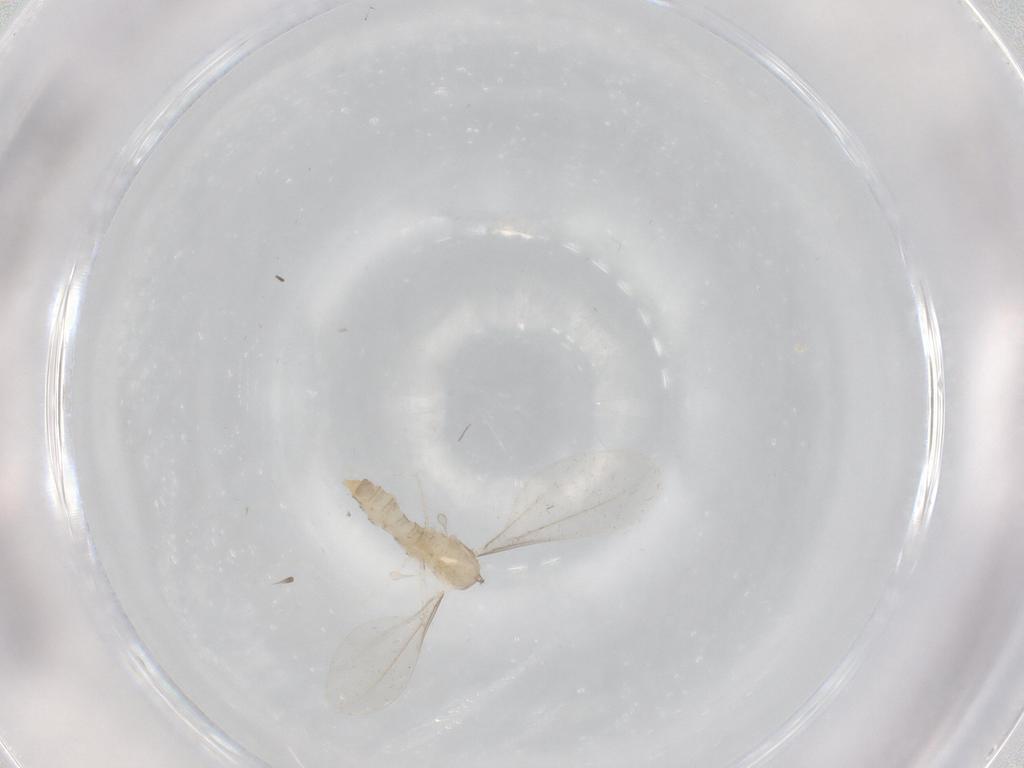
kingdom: Animalia
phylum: Arthropoda
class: Insecta
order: Diptera
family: Cecidomyiidae
